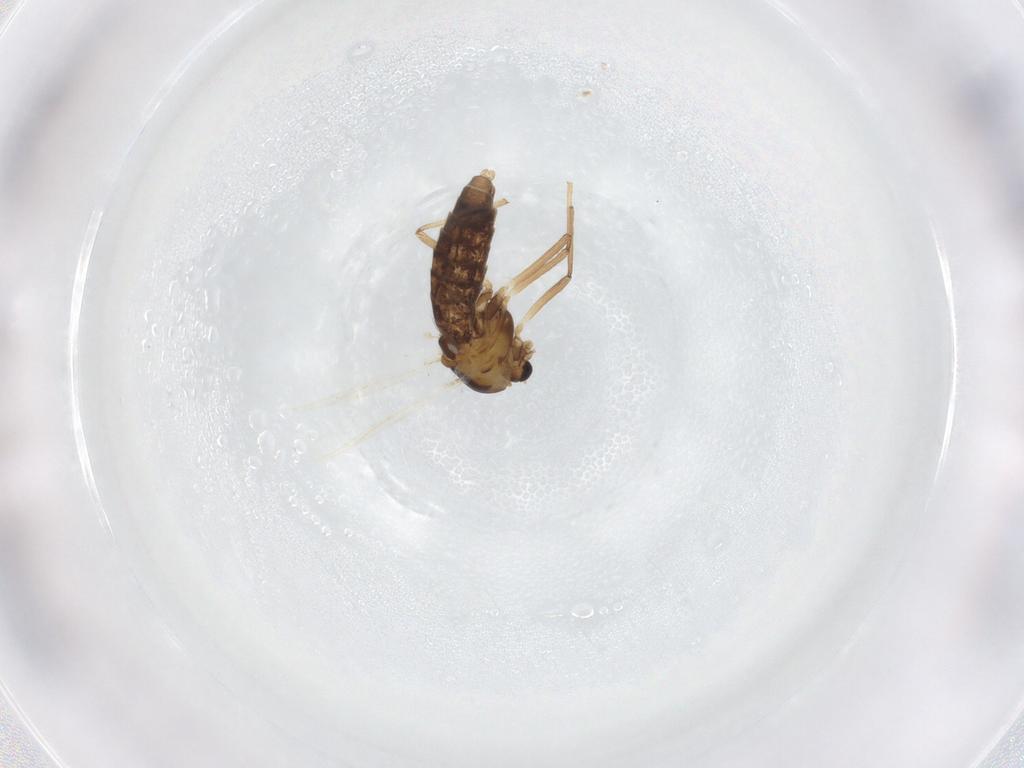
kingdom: Animalia
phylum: Arthropoda
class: Insecta
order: Diptera
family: Chironomidae
